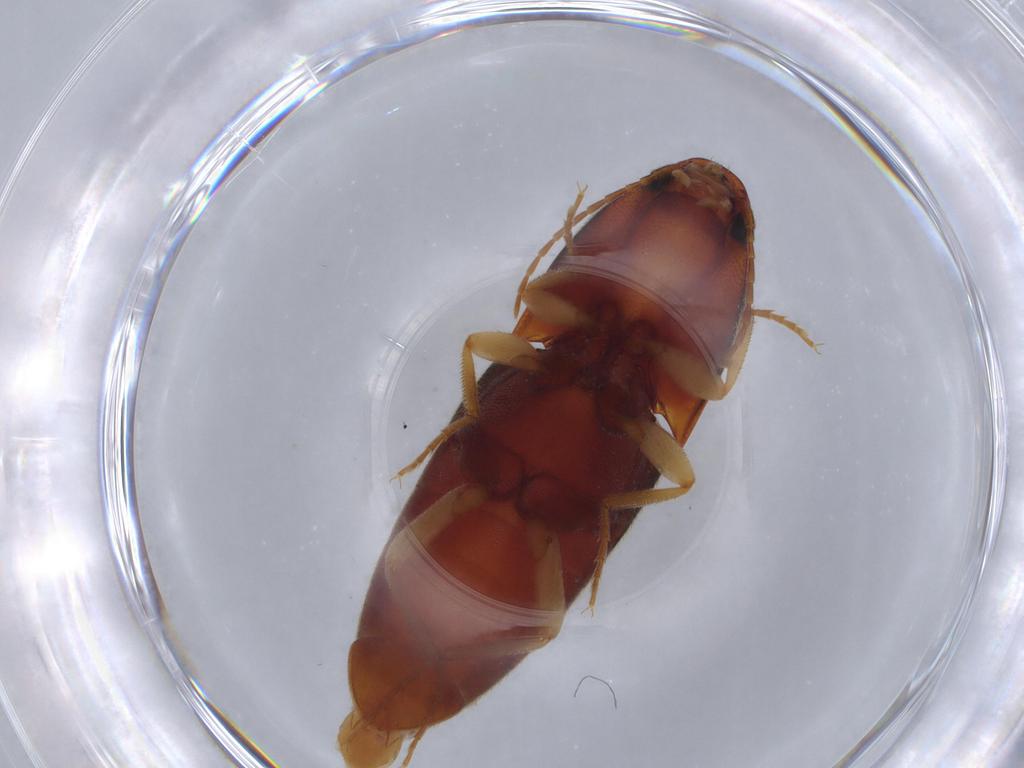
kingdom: Animalia
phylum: Arthropoda
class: Insecta
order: Coleoptera
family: Elateridae
